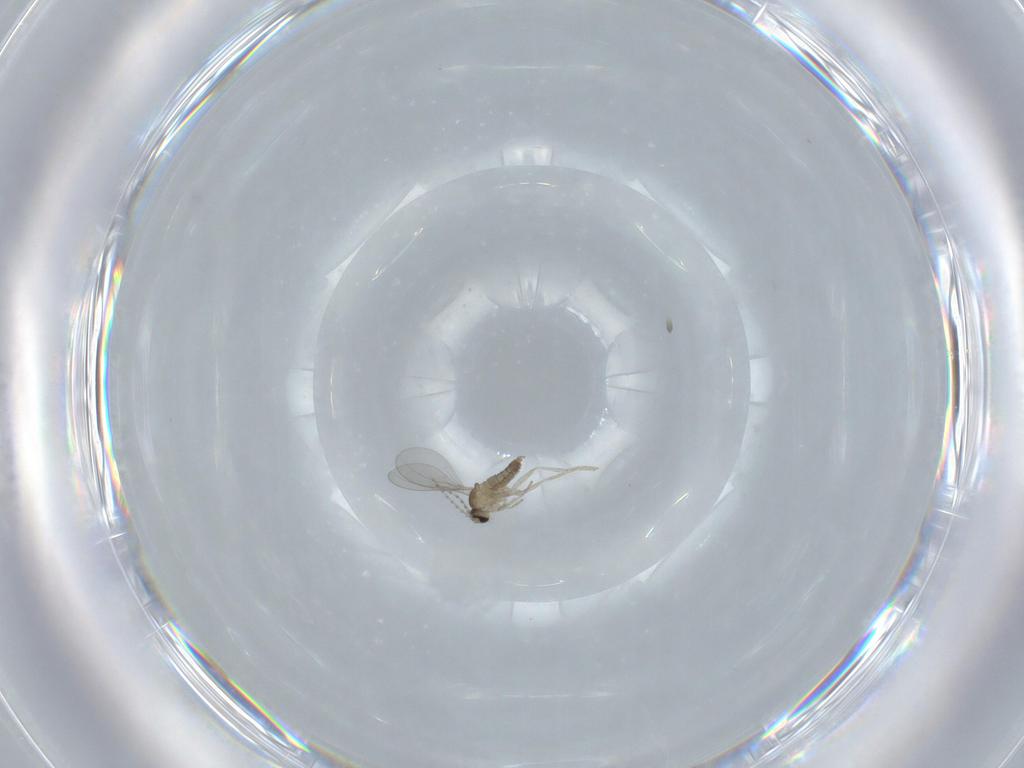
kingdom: Animalia
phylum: Arthropoda
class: Insecta
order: Diptera
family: Cecidomyiidae
